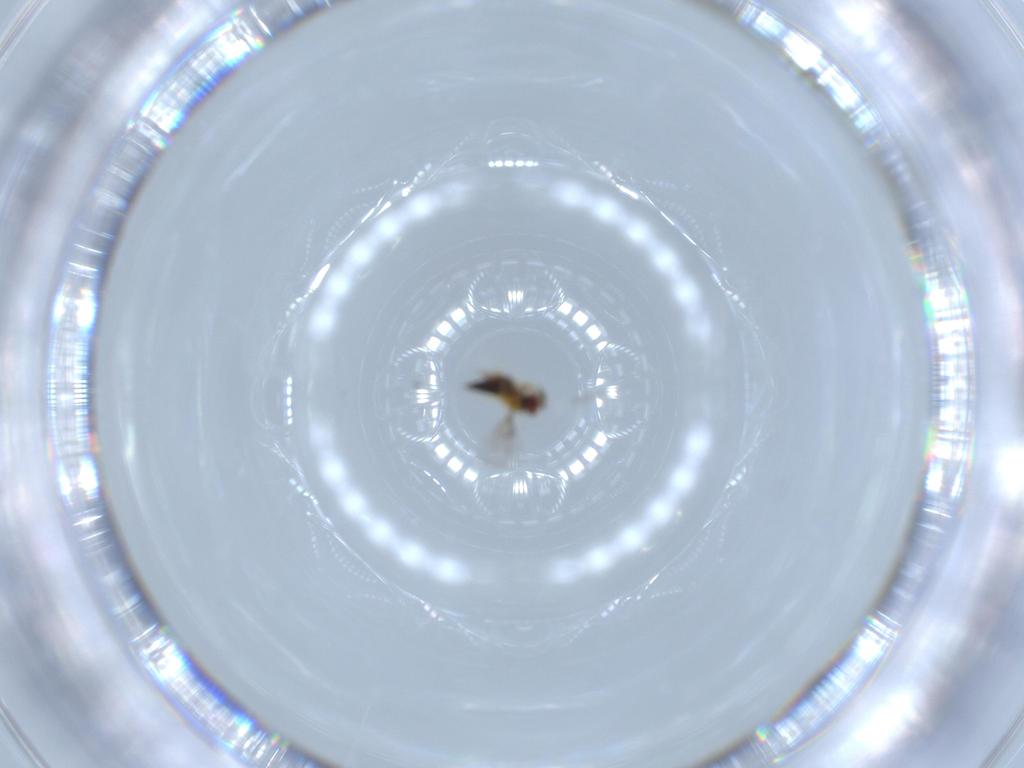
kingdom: Animalia
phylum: Arthropoda
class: Insecta
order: Hymenoptera
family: Trichogrammatidae
